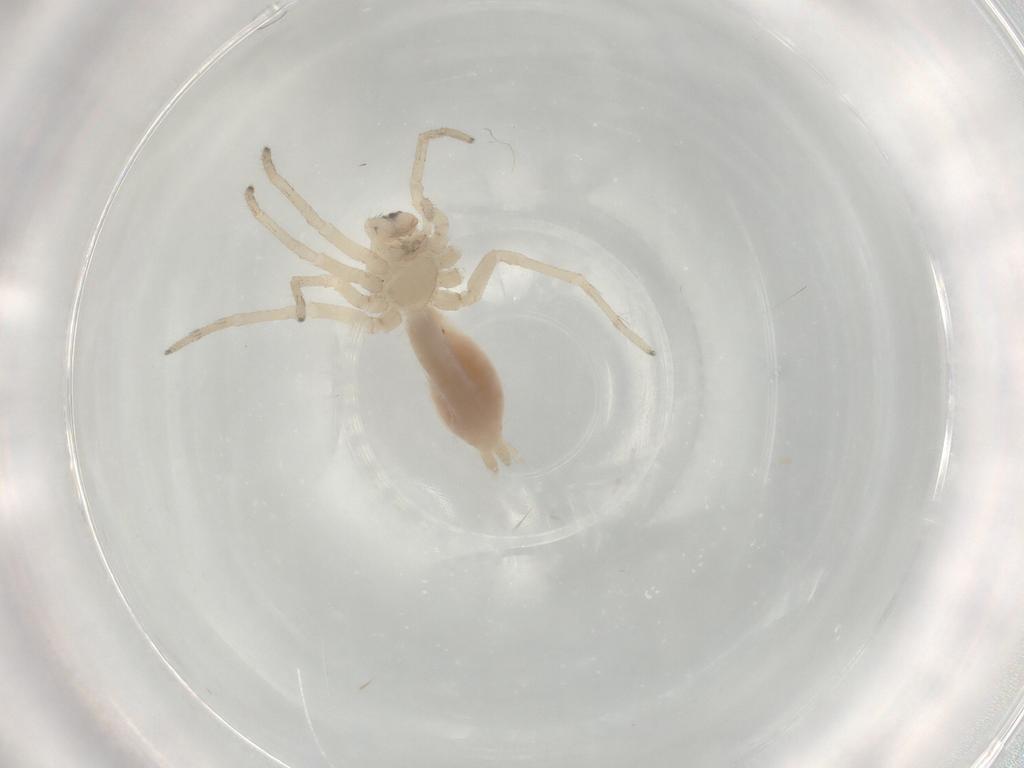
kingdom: Animalia
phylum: Arthropoda
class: Arachnida
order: Araneae
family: Clubionidae
